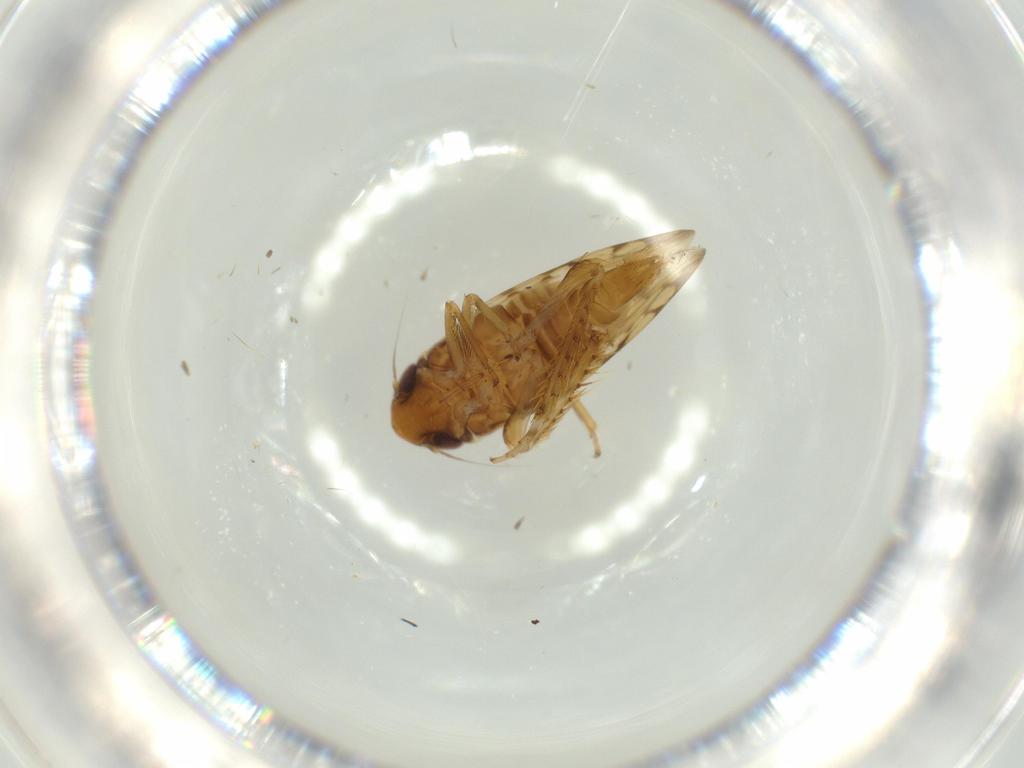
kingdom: Animalia
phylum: Arthropoda
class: Insecta
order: Hemiptera
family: Cicadellidae
